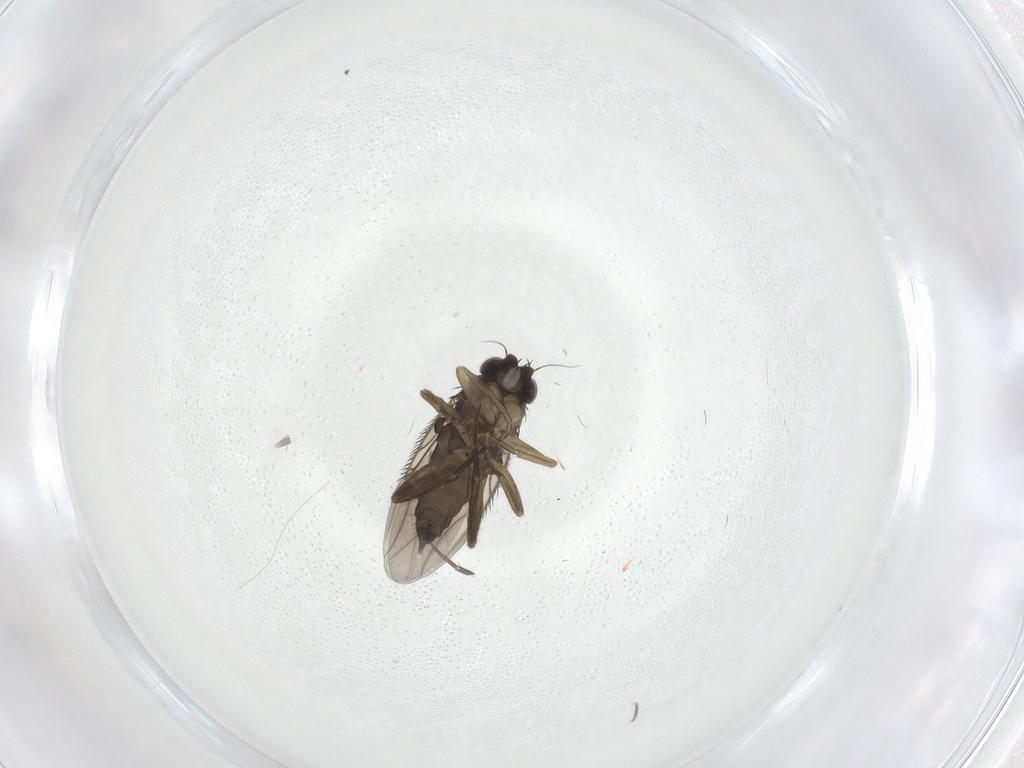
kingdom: Animalia
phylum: Arthropoda
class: Insecta
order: Diptera
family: Phoridae
